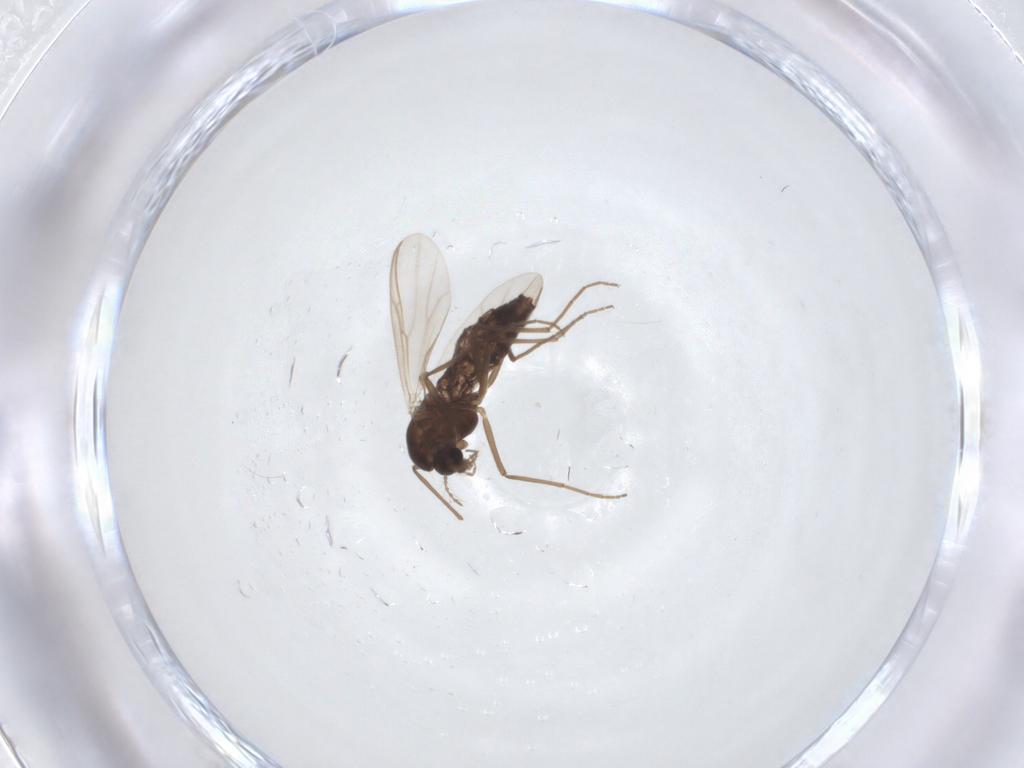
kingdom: Animalia
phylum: Arthropoda
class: Insecta
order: Diptera
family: Chironomidae
